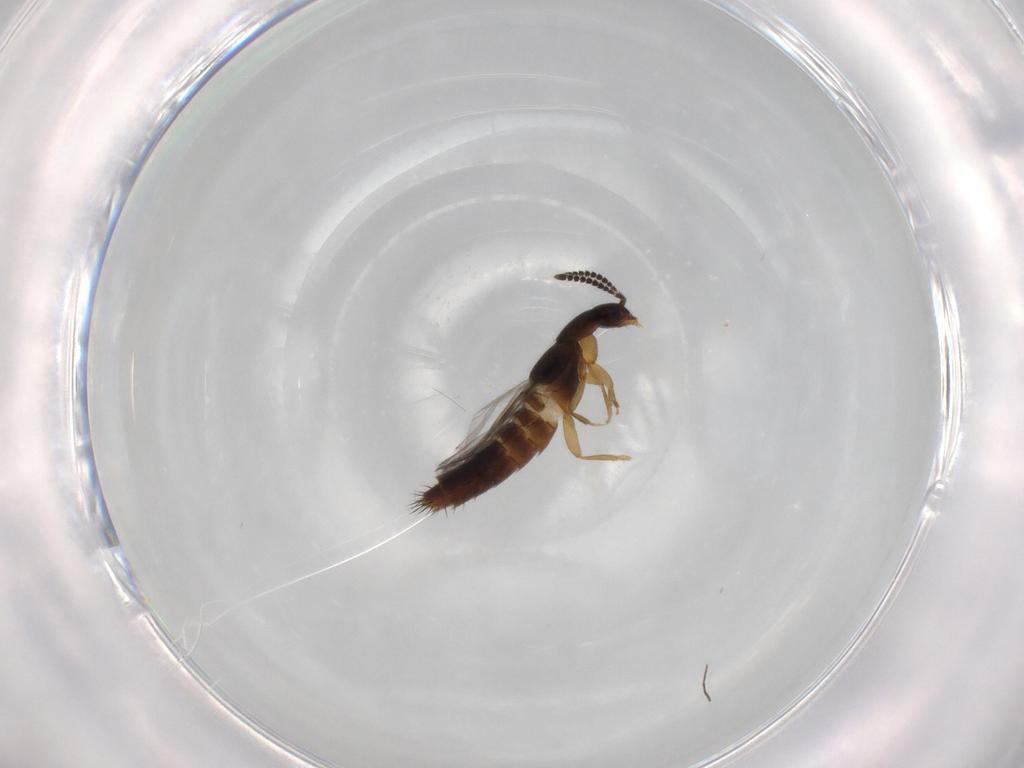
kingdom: Animalia
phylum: Arthropoda
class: Insecta
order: Coleoptera
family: Staphylinidae
